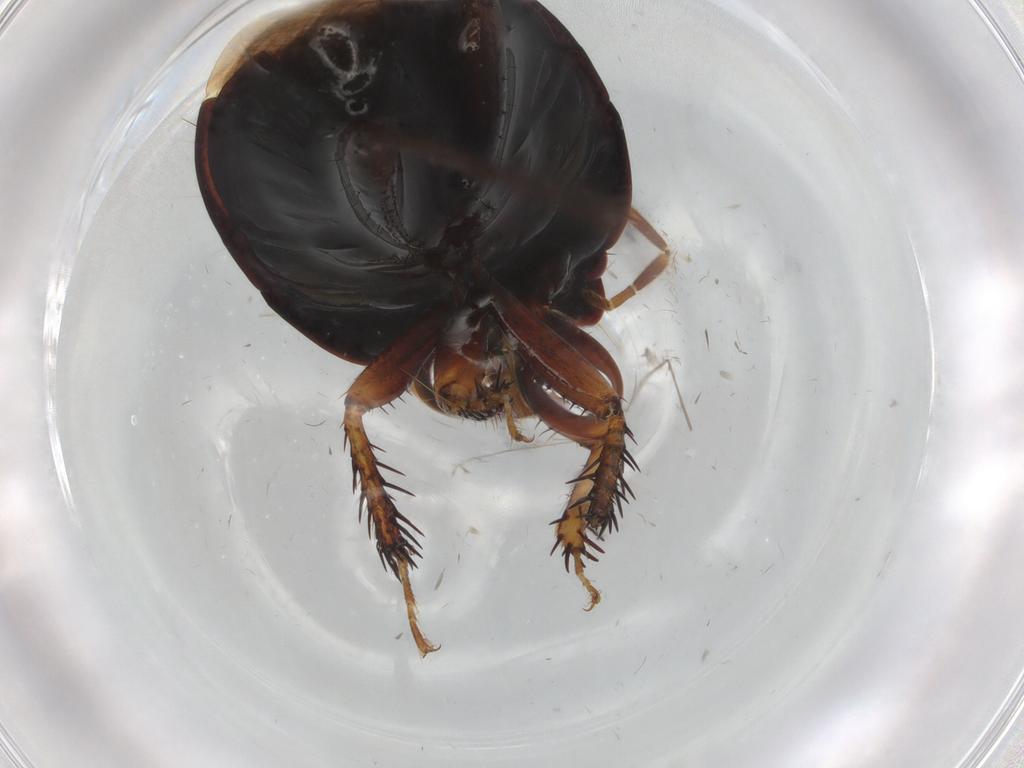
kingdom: Animalia
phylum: Arthropoda
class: Insecta
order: Hemiptera
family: Cydnidae
